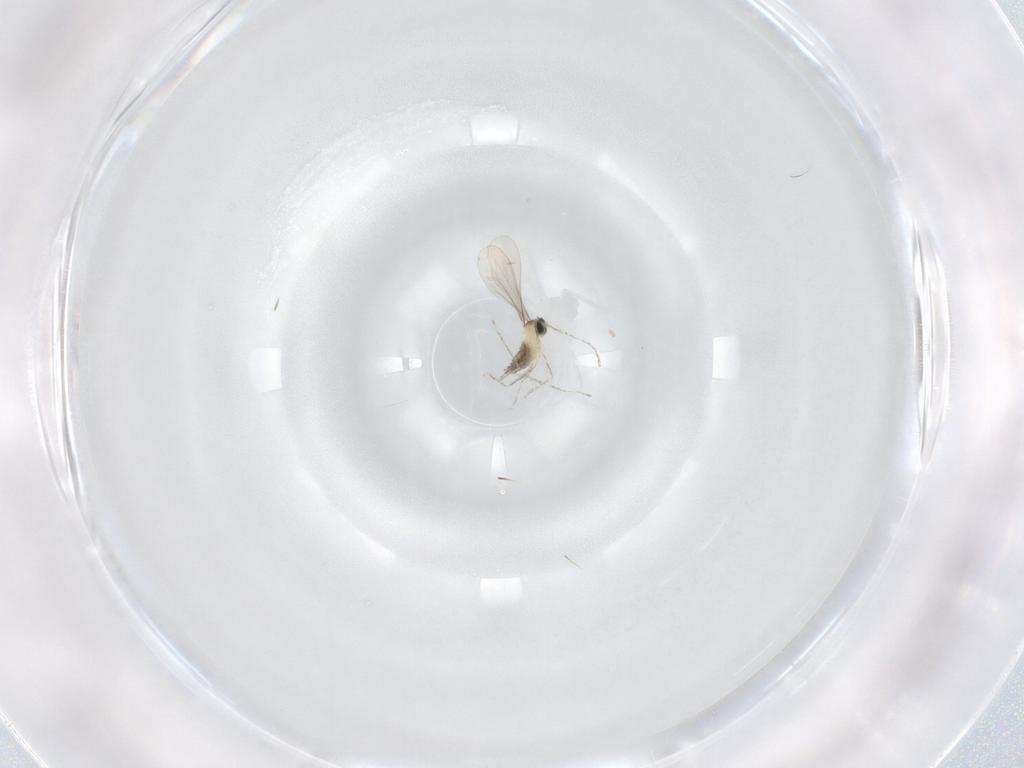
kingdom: Animalia
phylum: Arthropoda
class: Insecta
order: Diptera
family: Cecidomyiidae
